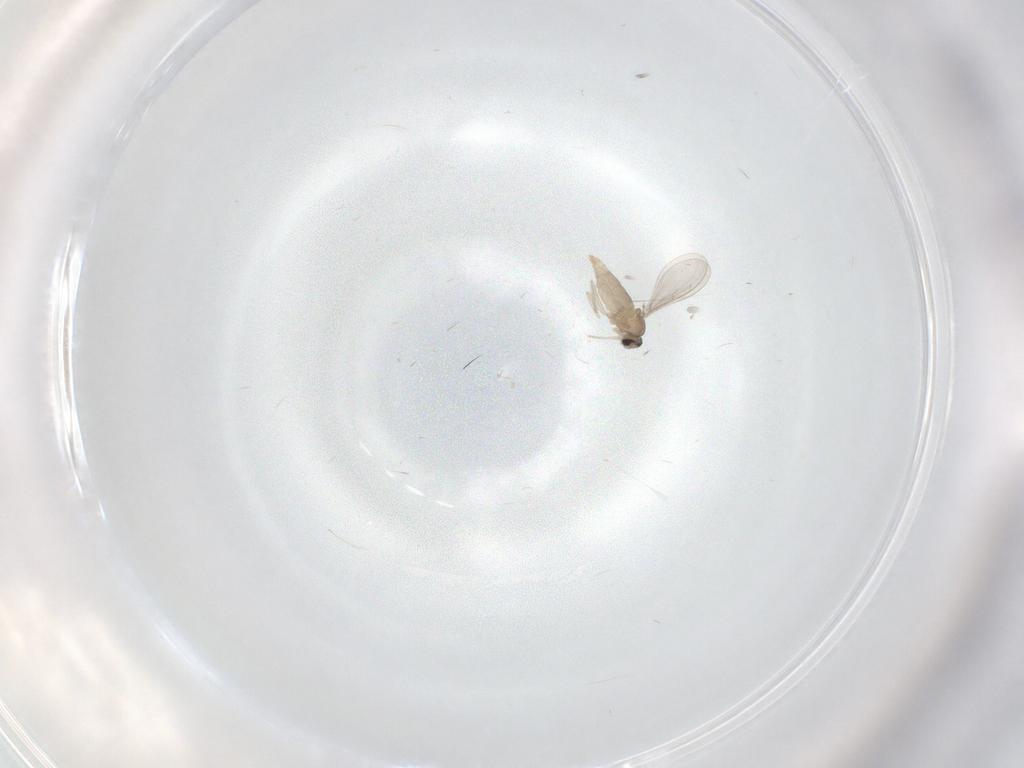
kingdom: Animalia
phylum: Arthropoda
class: Insecta
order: Diptera
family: Cecidomyiidae
